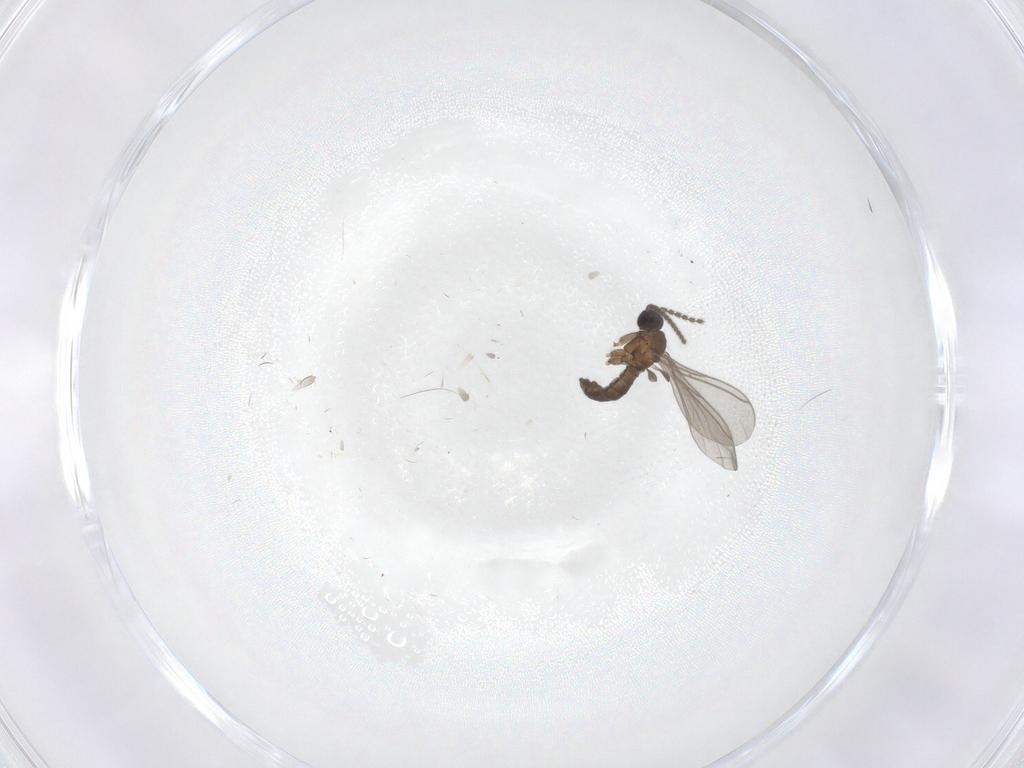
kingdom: Animalia
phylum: Arthropoda
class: Insecta
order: Diptera
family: Sciaridae
